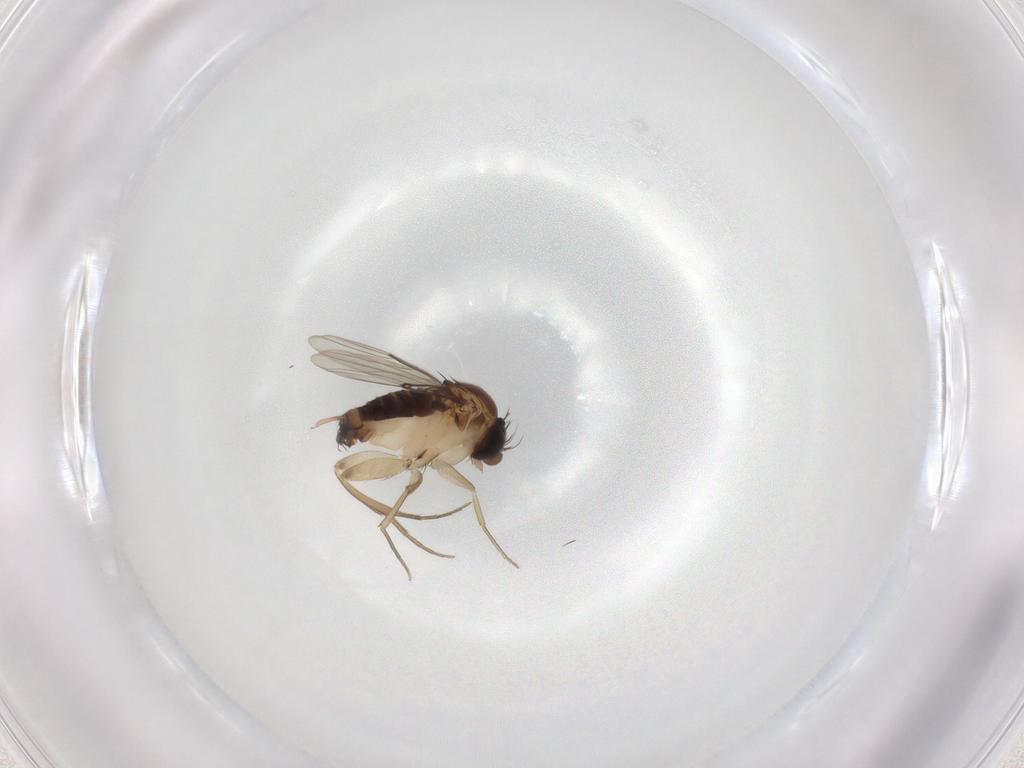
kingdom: Animalia
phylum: Arthropoda
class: Insecta
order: Diptera
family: Phoridae
